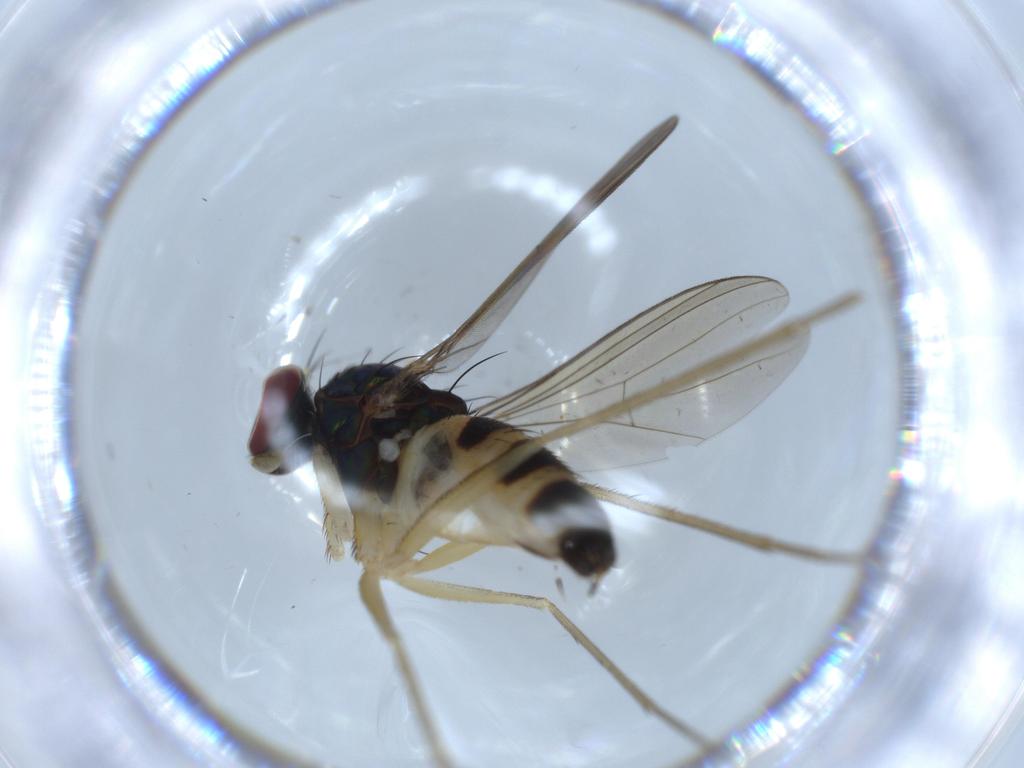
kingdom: Animalia
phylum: Arthropoda
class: Insecta
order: Diptera
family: Dolichopodidae
